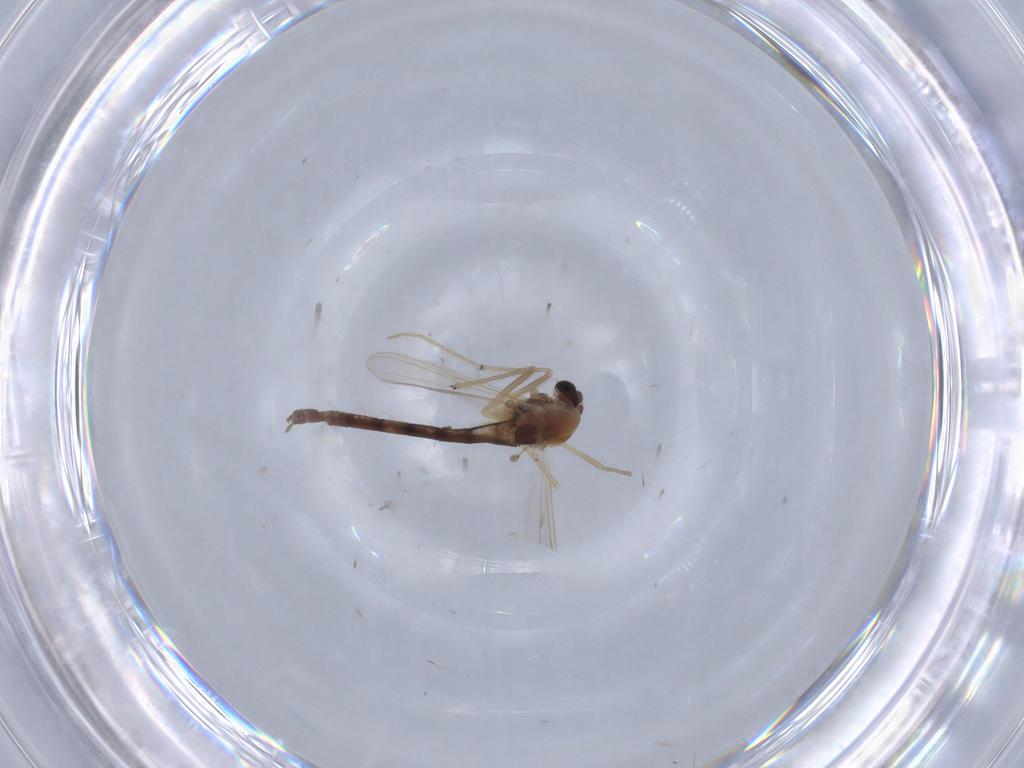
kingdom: Animalia
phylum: Arthropoda
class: Insecta
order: Diptera
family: Chironomidae
